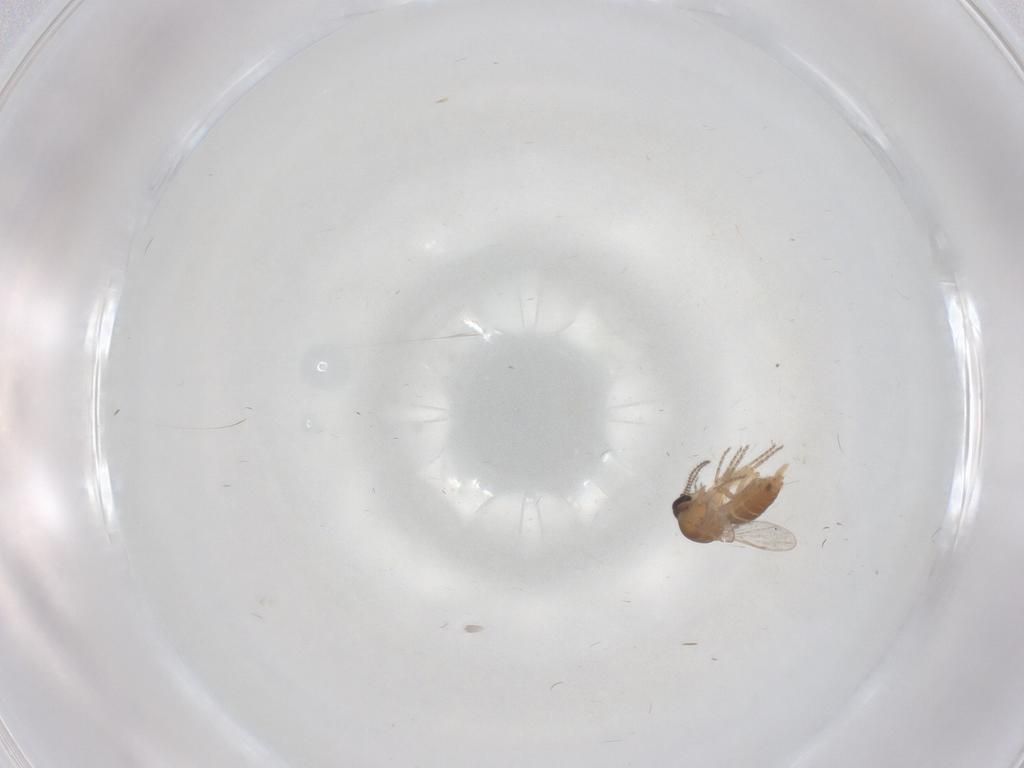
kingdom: Animalia
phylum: Arthropoda
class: Insecta
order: Diptera
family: Ceratopogonidae
